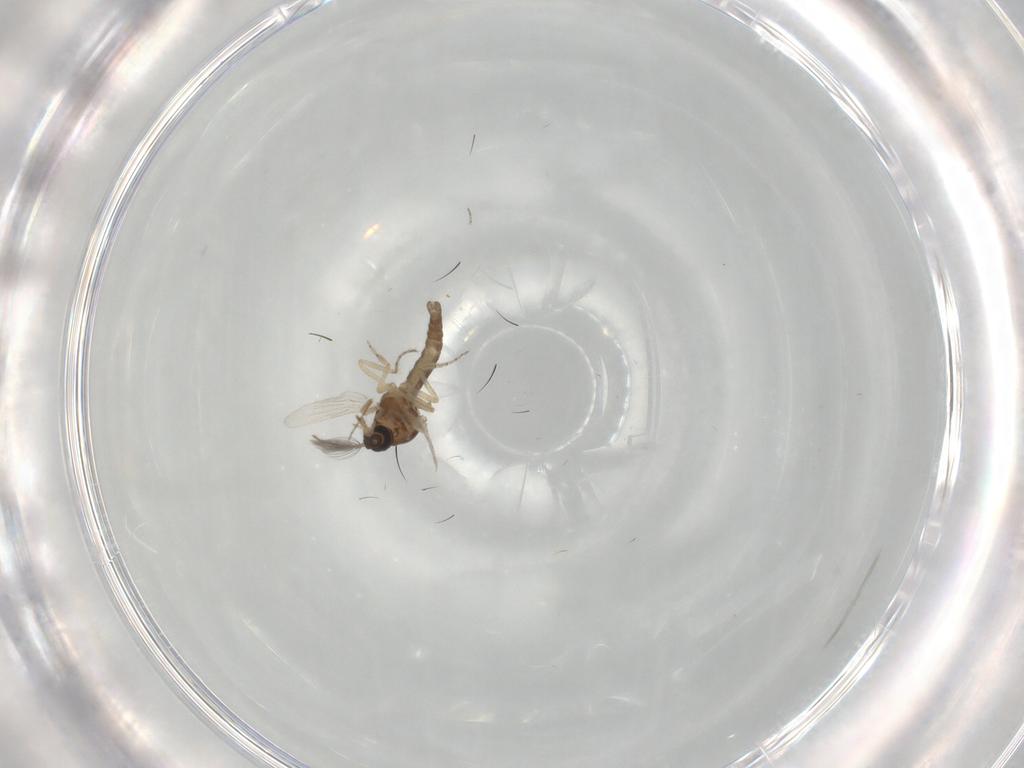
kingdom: Animalia
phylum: Arthropoda
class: Insecta
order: Diptera
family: Ceratopogonidae
